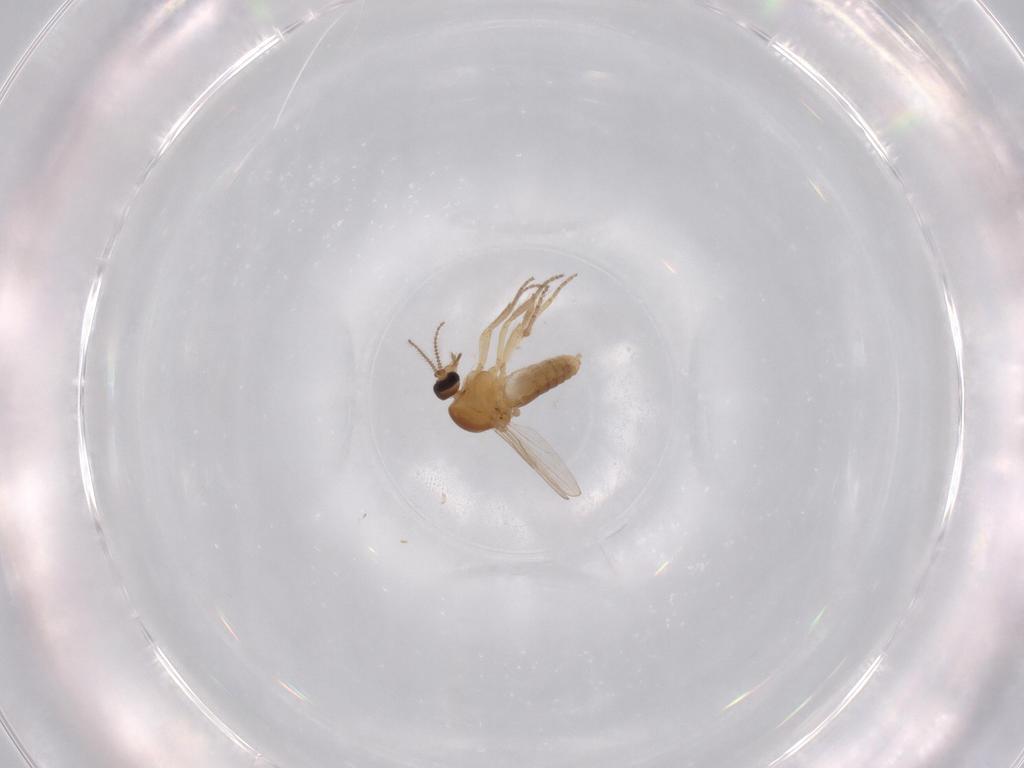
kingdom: Animalia
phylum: Arthropoda
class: Insecta
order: Diptera
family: Ceratopogonidae
